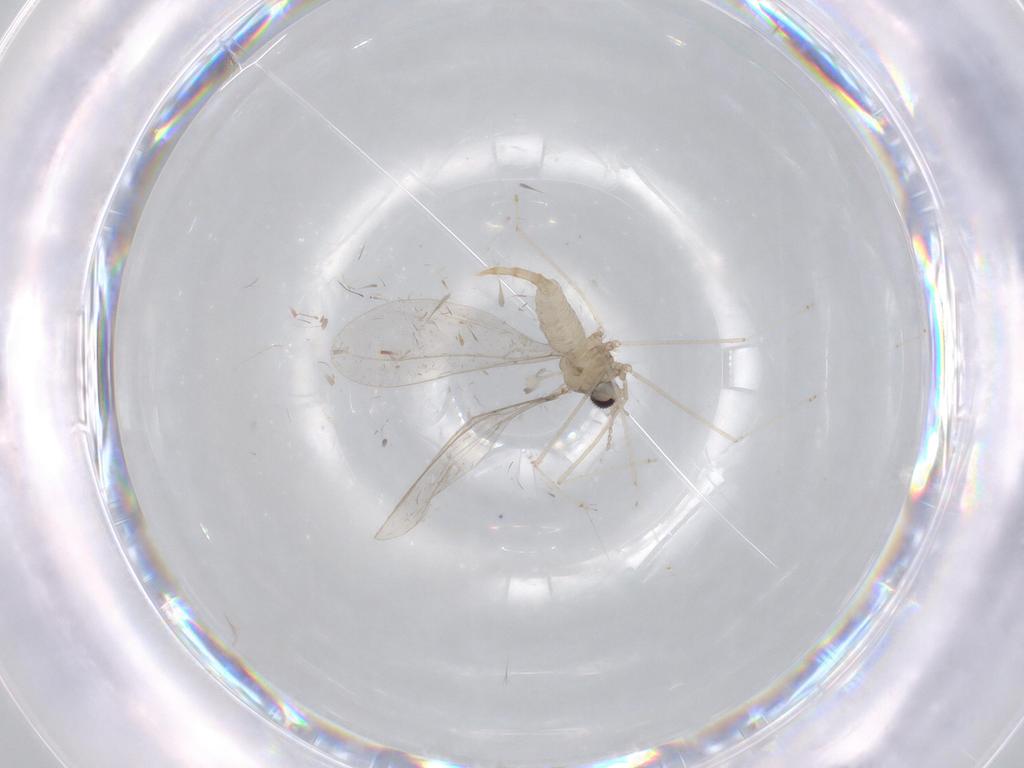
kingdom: Animalia
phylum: Arthropoda
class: Insecta
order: Diptera
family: Cecidomyiidae
